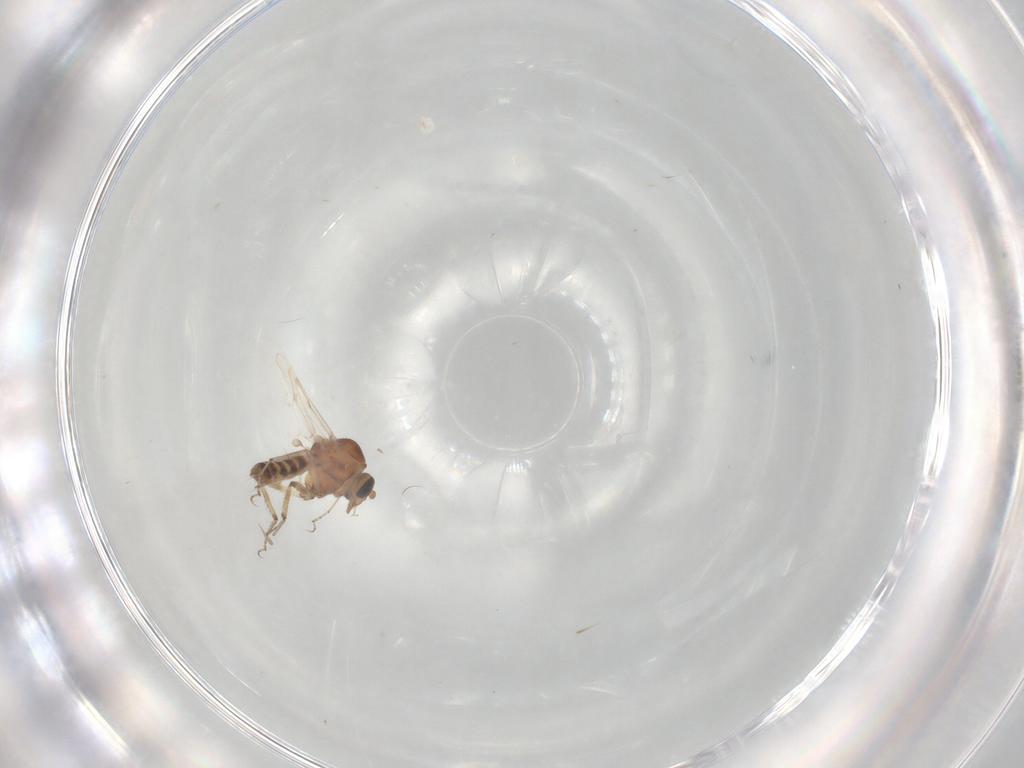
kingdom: Animalia
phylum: Arthropoda
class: Insecta
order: Diptera
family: Ceratopogonidae
